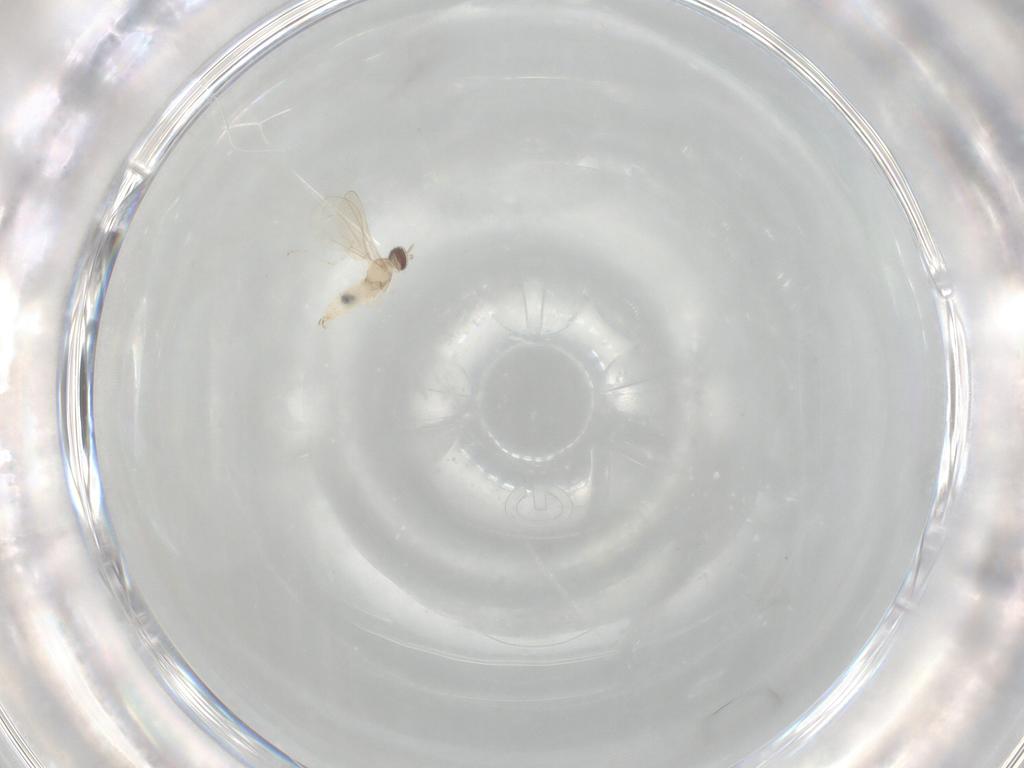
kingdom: Animalia
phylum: Arthropoda
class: Insecta
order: Diptera
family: Cecidomyiidae
